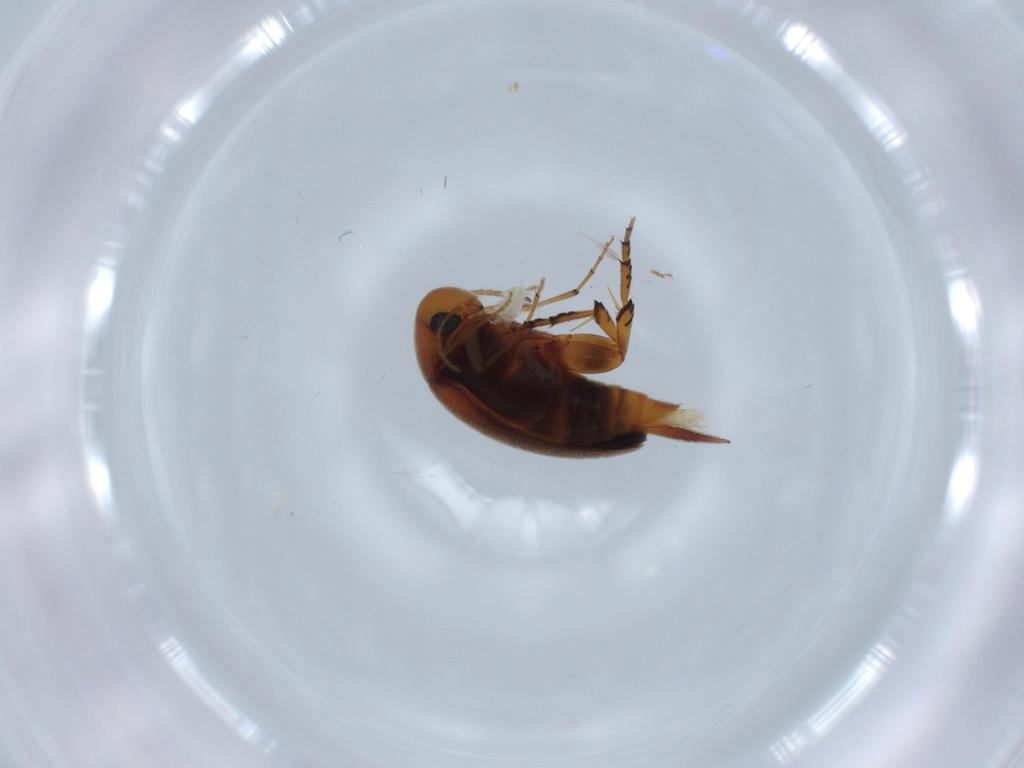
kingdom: Animalia
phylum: Arthropoda
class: Insecta
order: Coleoptera
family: Mordellidae
